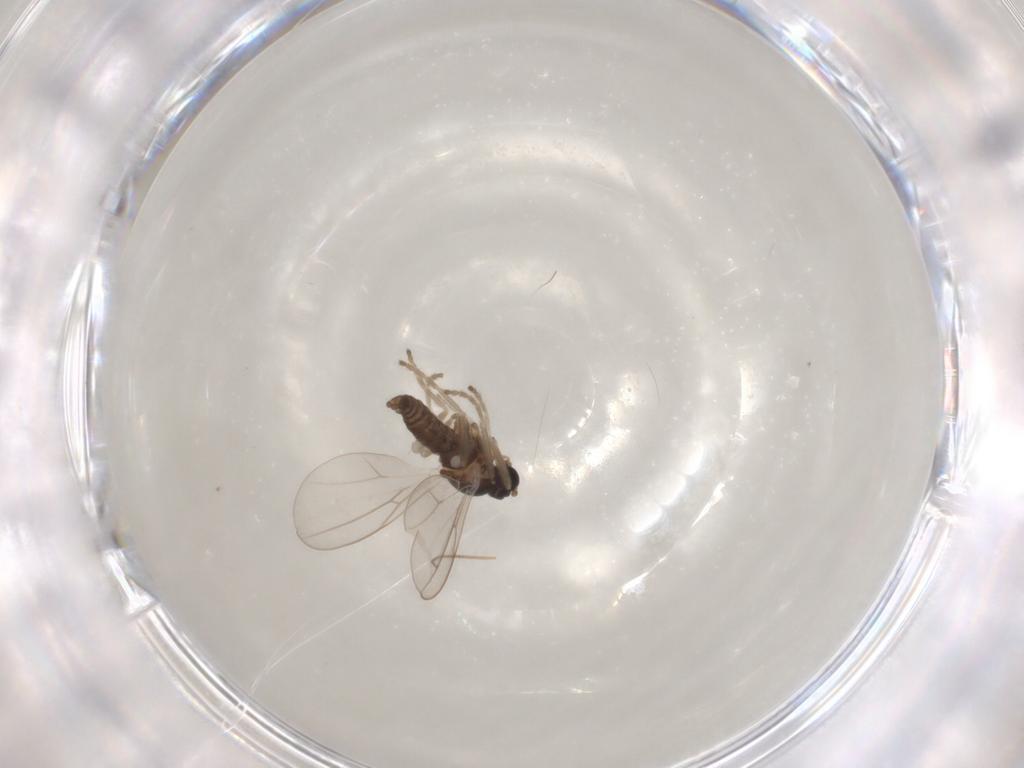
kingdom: Animalia
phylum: Arthropoda
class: Insecta
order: Diptera
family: Cecidomyiidae
